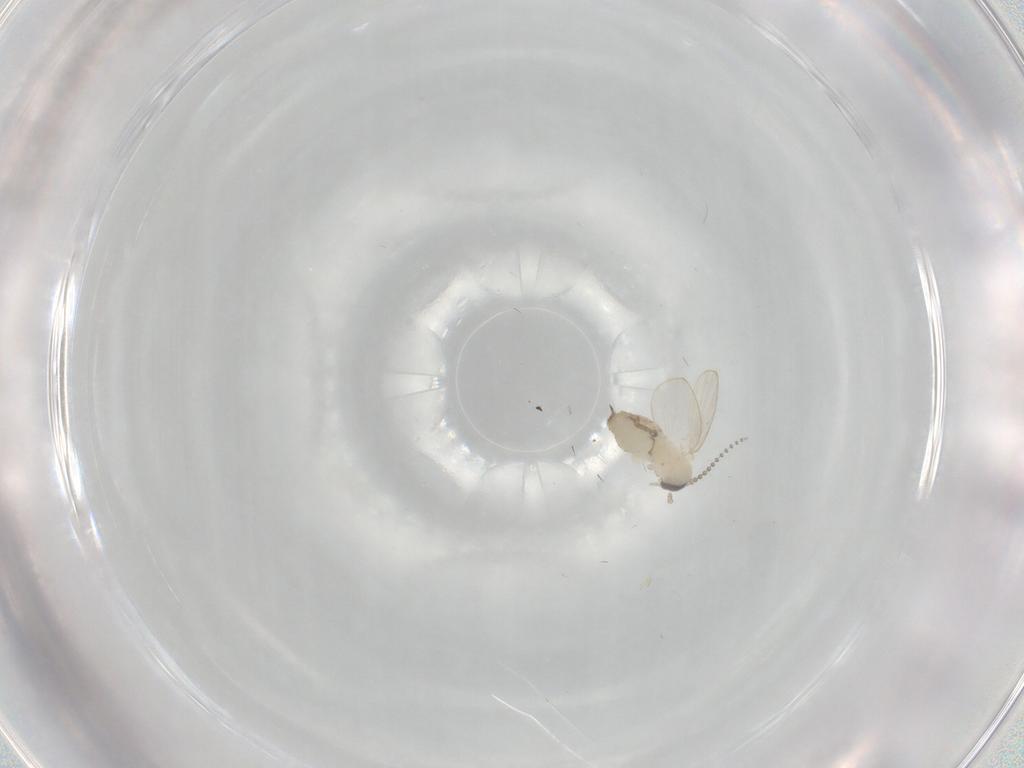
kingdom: Animalia
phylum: Arthropoda
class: Insecta
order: Diptera
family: Psychodidae
